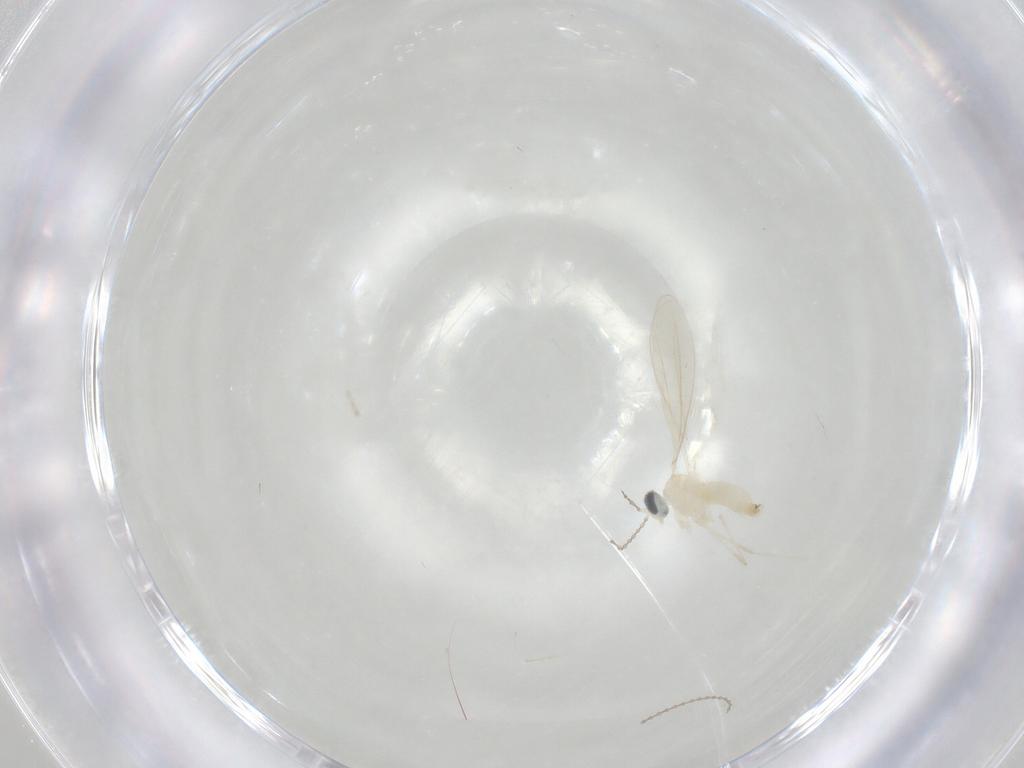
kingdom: Animalia
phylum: Arthropoda
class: Insecta
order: Diptera
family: Cecidomyiidae
